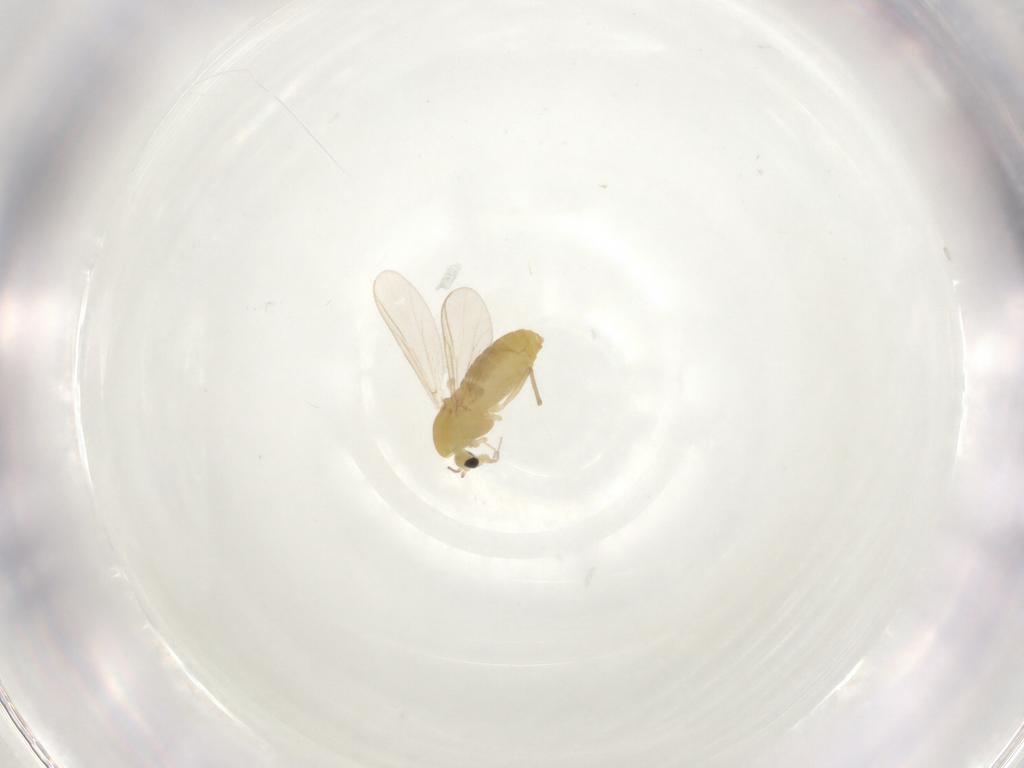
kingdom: Animalia
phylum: Arthropoda
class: Insecta
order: Diptera
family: Chironomidae
